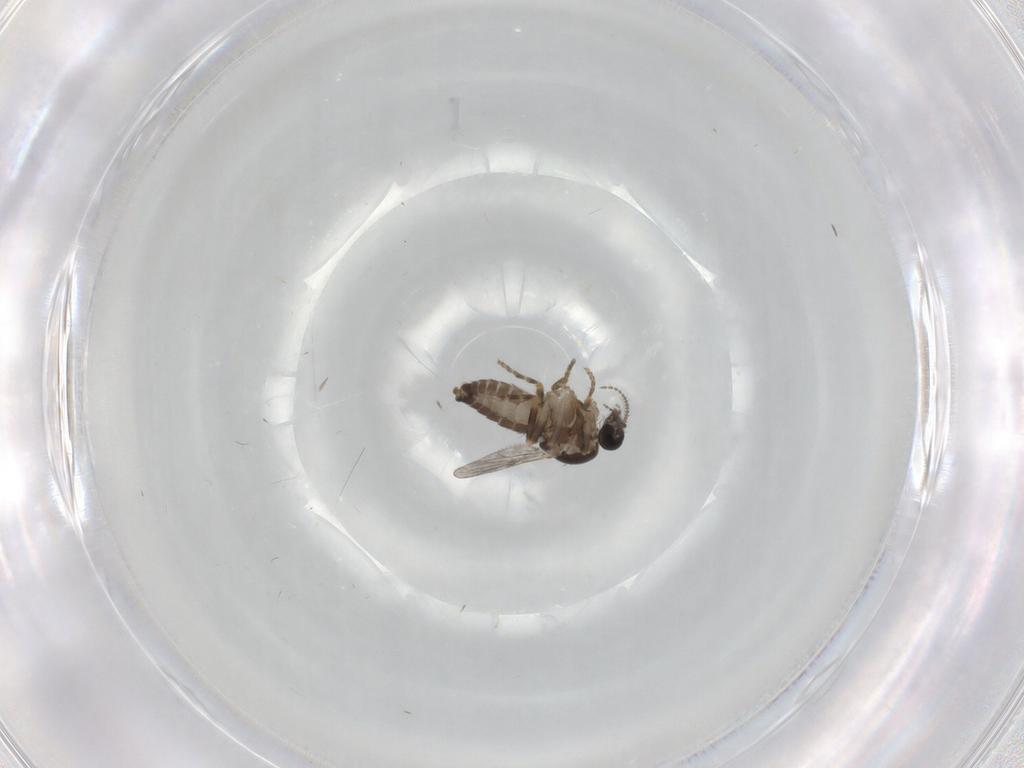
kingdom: Animalia
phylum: Arthropoda
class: Insecta
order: Diptera
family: Ceratopogonidae
